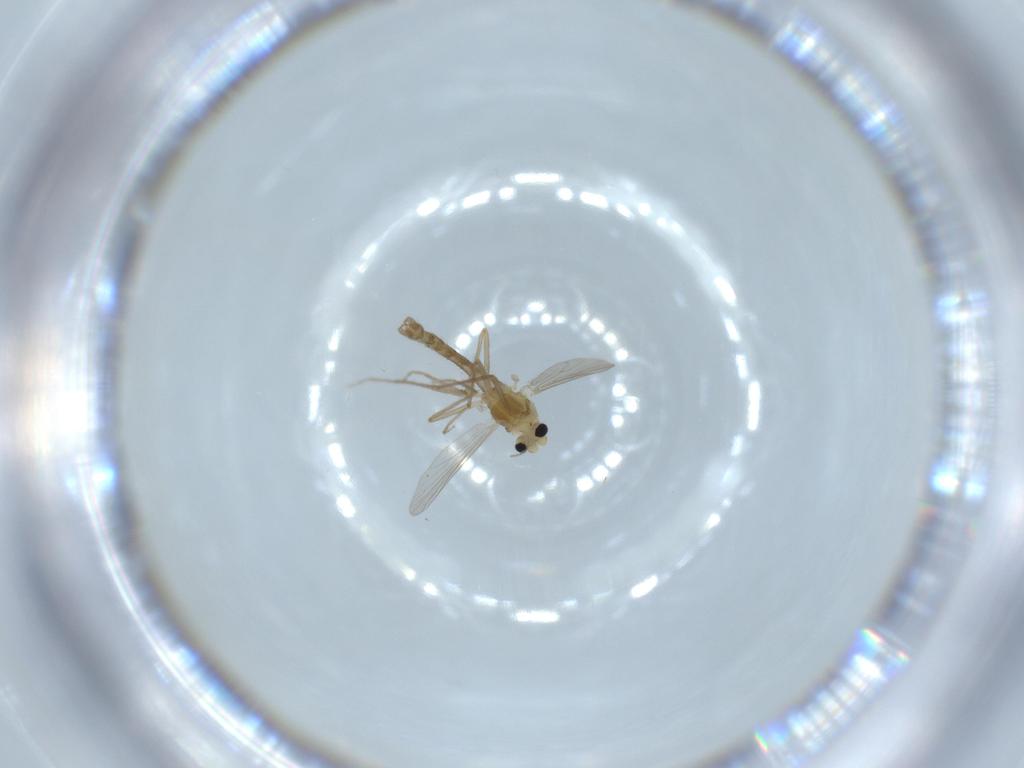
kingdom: Animalia
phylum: Arthropoda
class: Insecta
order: Diptera
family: Chironomidae
